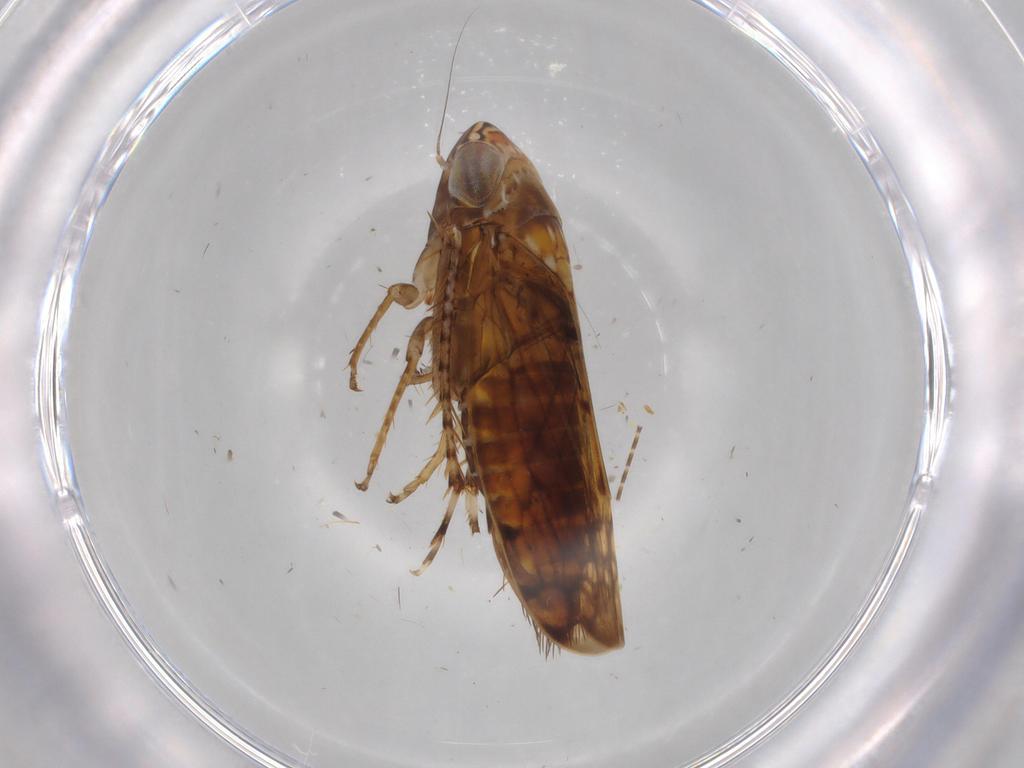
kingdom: Animalia
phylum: Arthropoda
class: Insecta
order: Hemiptera
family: Cicadellidae
